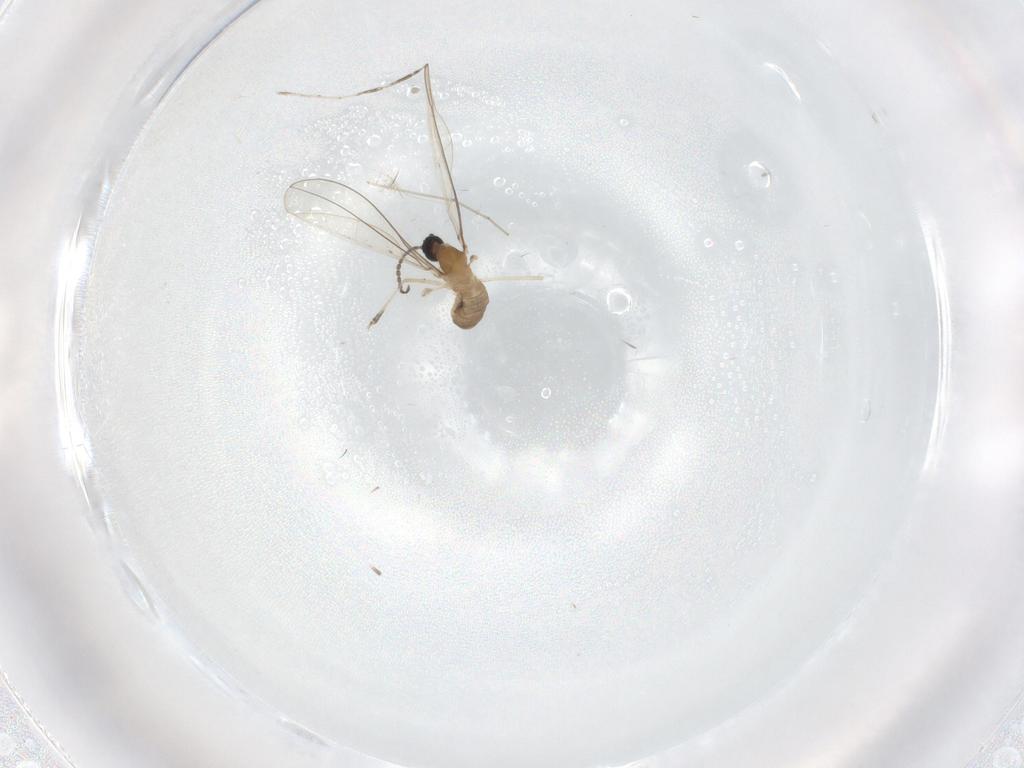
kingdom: Animalia
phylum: Arthropoda
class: Insecta
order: Diptera
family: Cecidomyiidae
